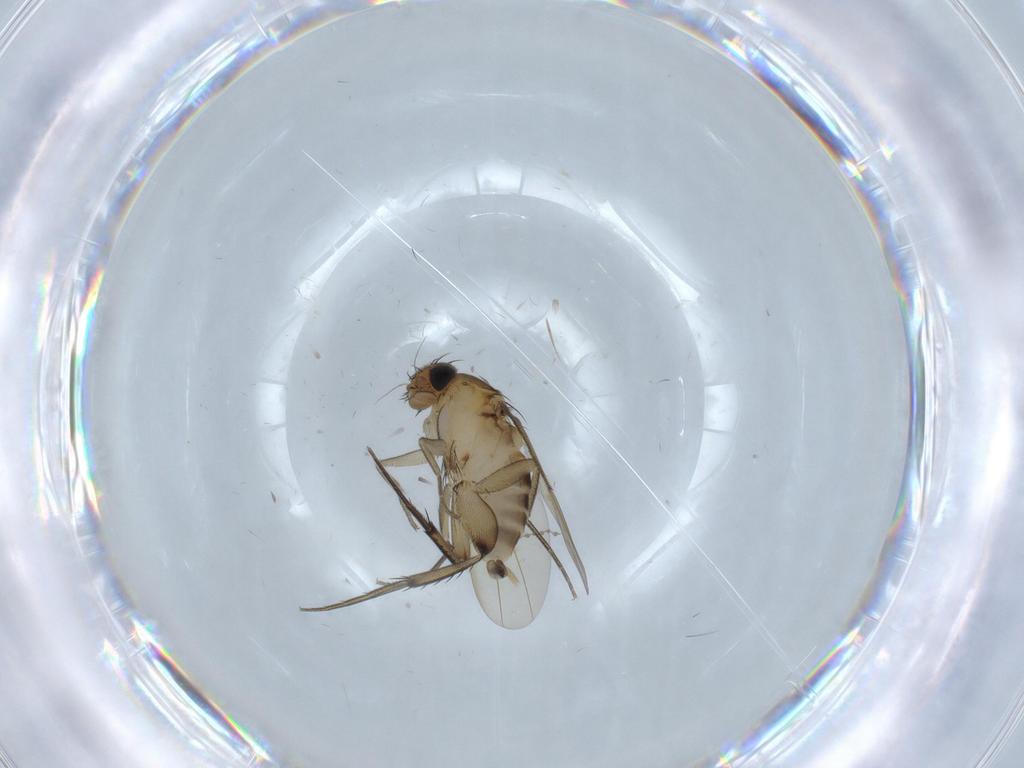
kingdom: Animalia
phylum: Arthropoda
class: Insecta
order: Diptera
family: Phoridae
